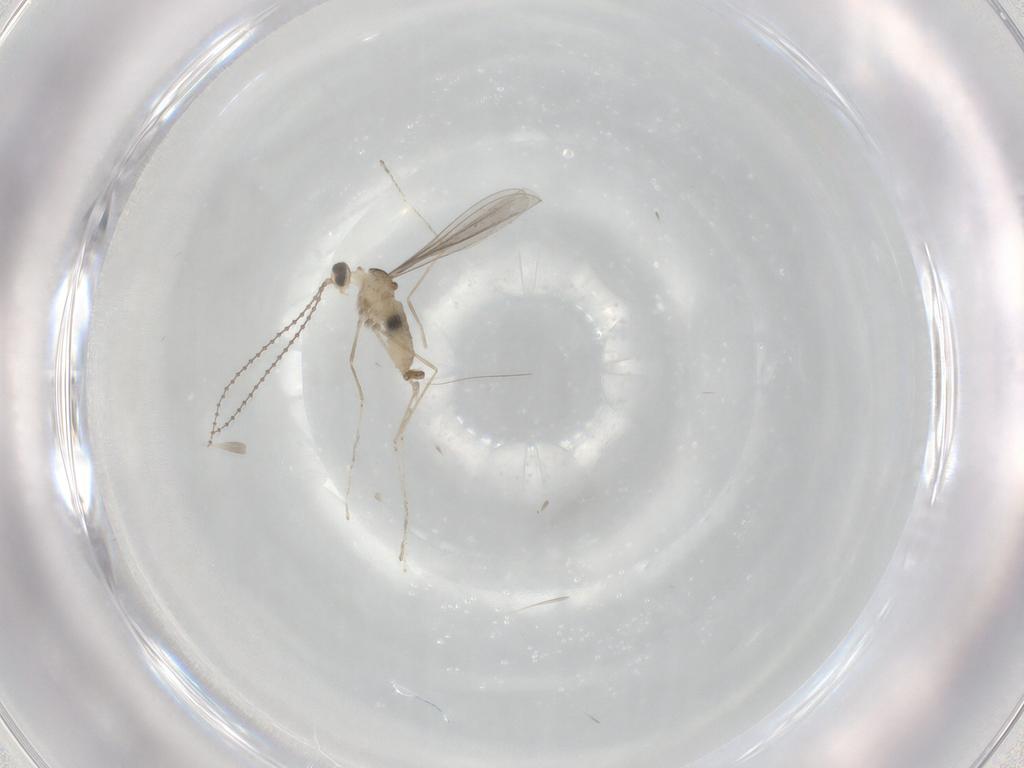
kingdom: Animalia
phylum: Arthropoda
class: Insecta
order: Diptera
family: Cecidomyiidae
